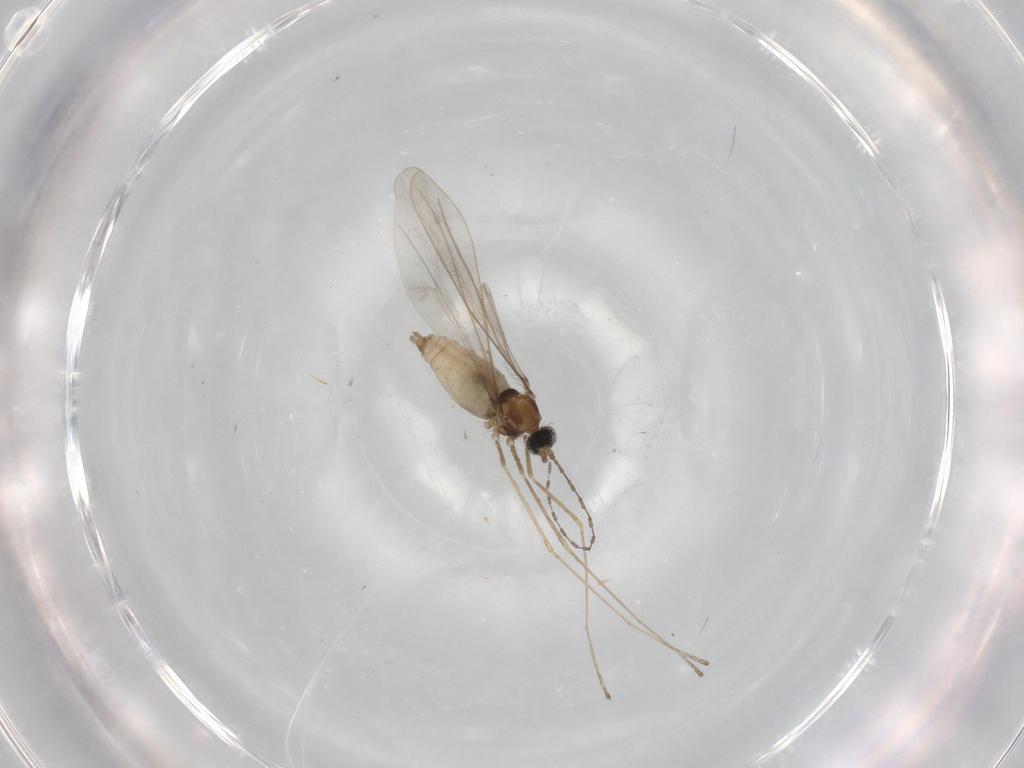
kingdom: Animalia
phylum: Arthropoda
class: Insecta
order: Diptera
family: Cecidomyiidae
